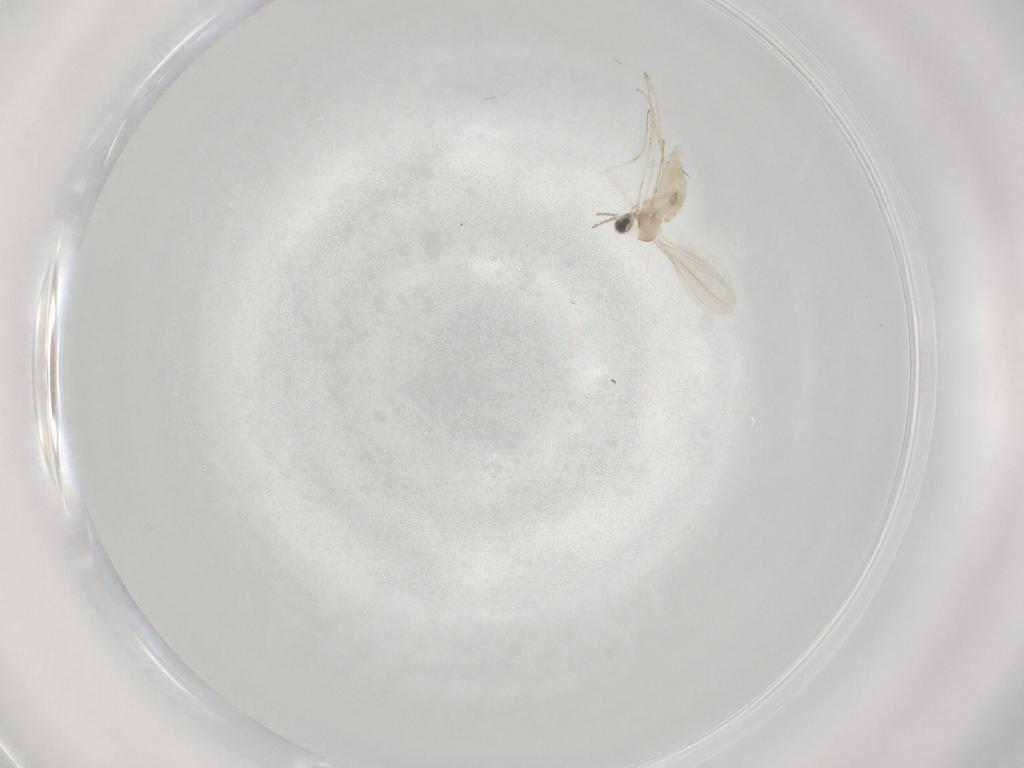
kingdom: Animalia
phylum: Arthropoda
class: Insecta
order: Diptera
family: Cecidomyiidae
